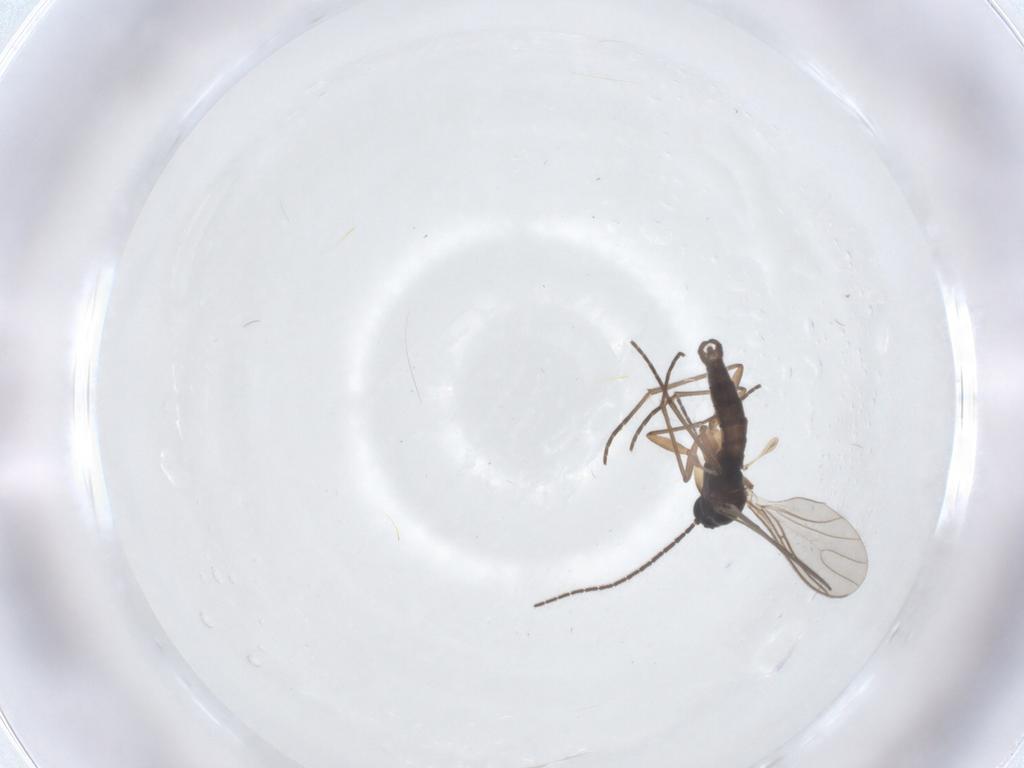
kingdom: Animalia
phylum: Arthropoda
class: Insecta
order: Diptera
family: Sciaridae
